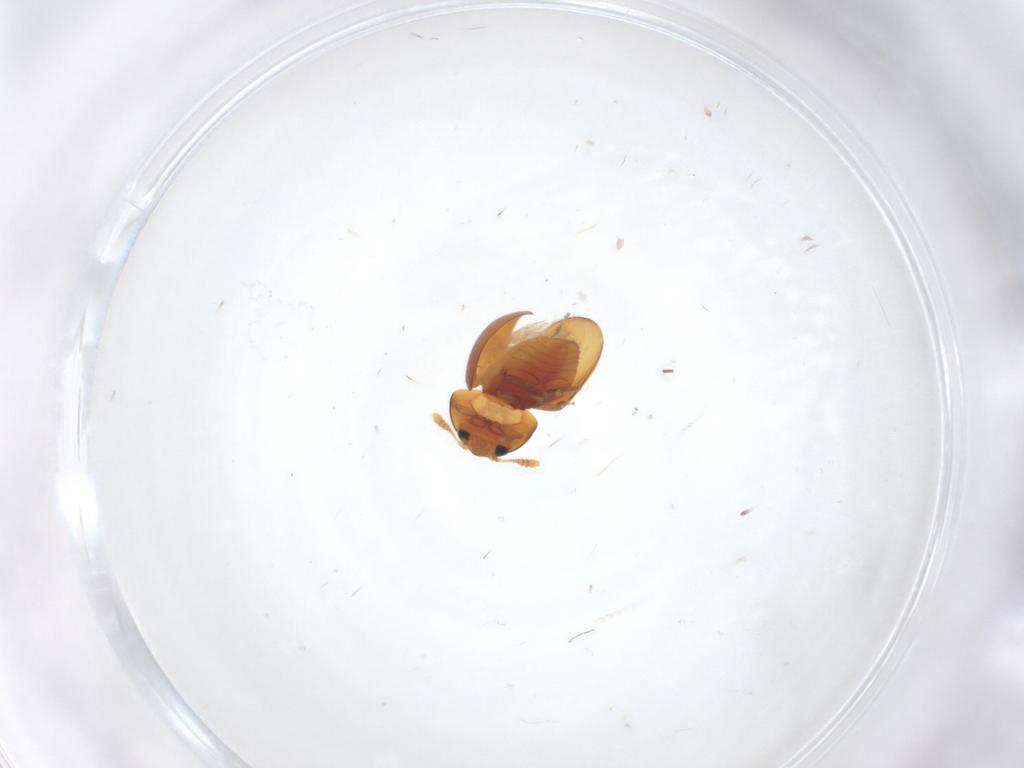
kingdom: Animalia
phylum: Arthropoda
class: Insecta
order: Coleoptera
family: Phalacridae
